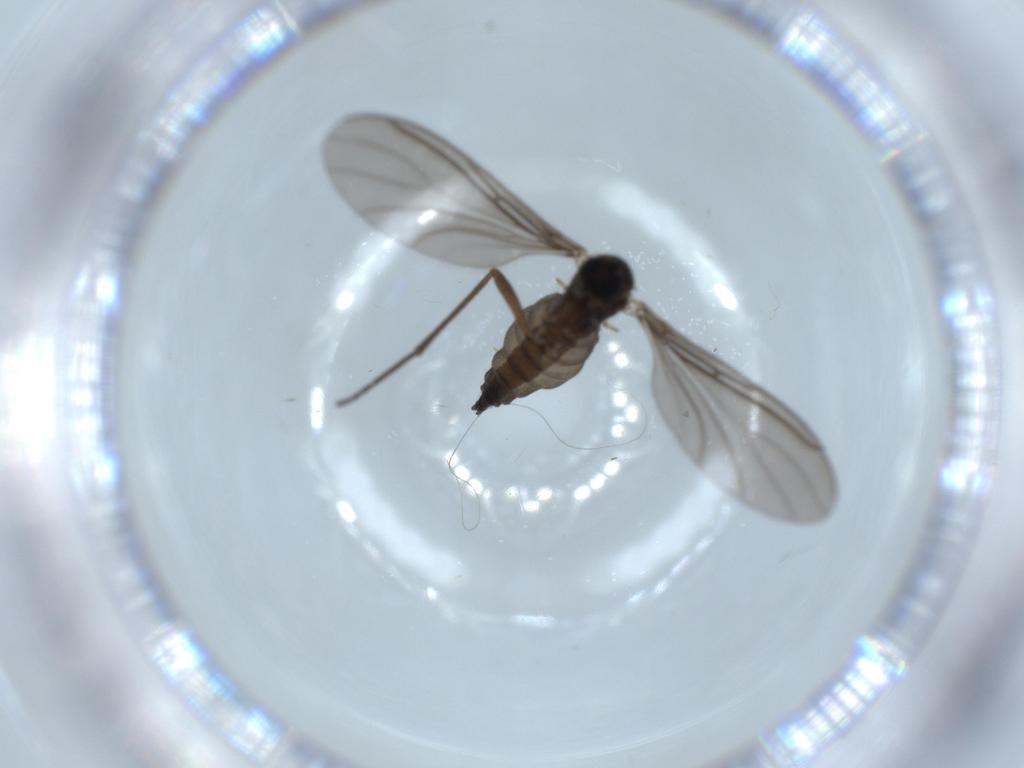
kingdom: Animalia
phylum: Arthropoda
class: Insecta
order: Diptera
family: Sciaridae
